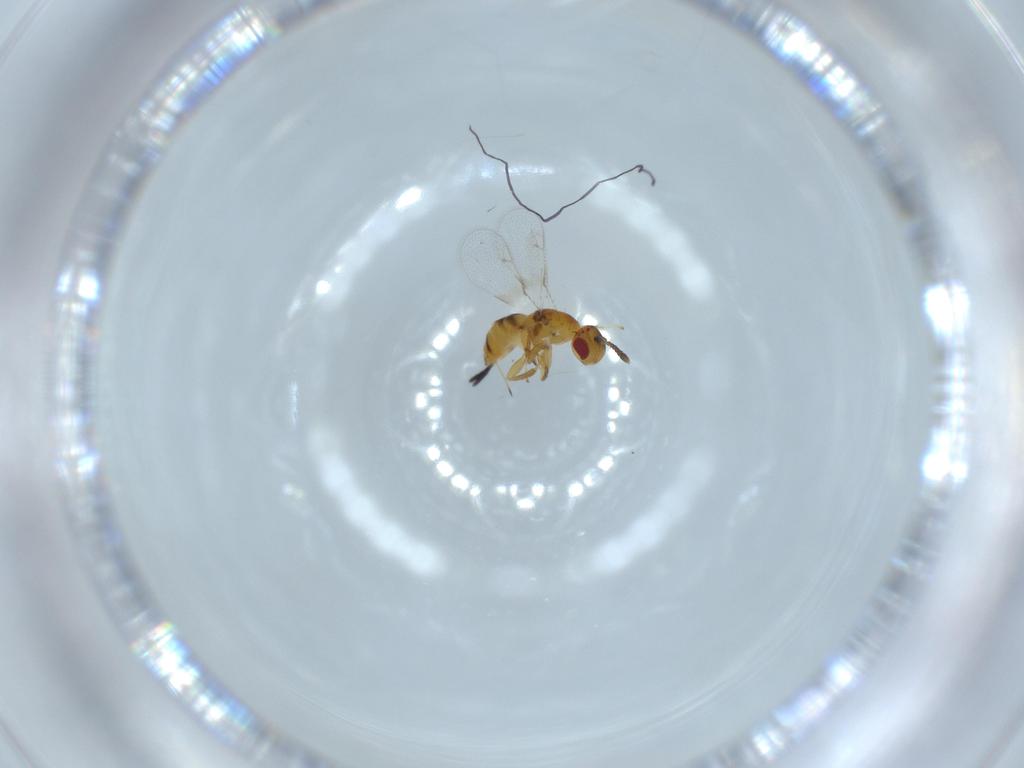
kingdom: Animalia
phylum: Arthropoda
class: Insecta
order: Hymenoptera
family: Torymidae
